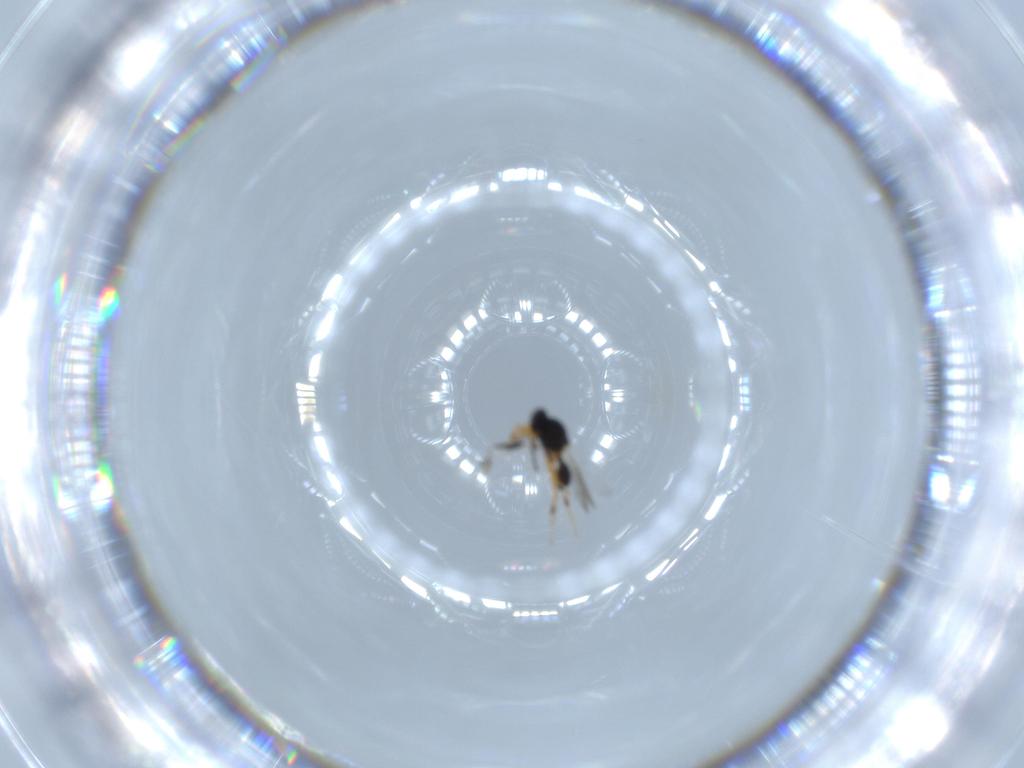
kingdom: Animalia
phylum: Arthropoda
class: Insecta
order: Hymenoptera
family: Platygastridae
